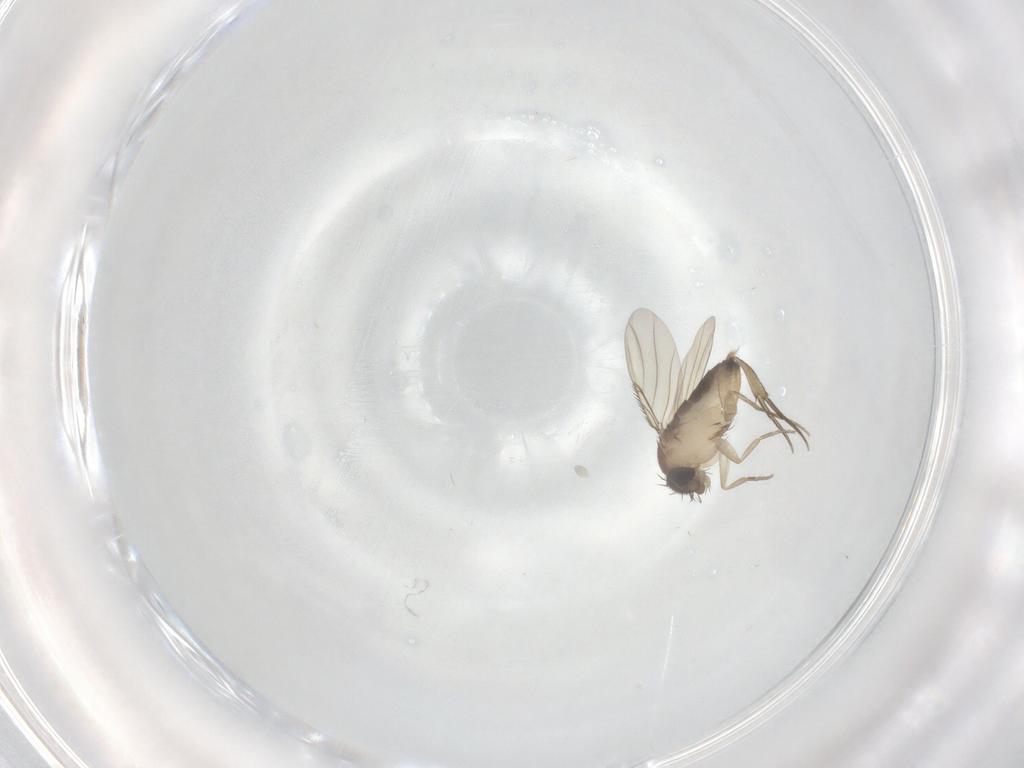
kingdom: Animalia
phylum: Arthropoda
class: Insecta
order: Diptera
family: Phoridae
